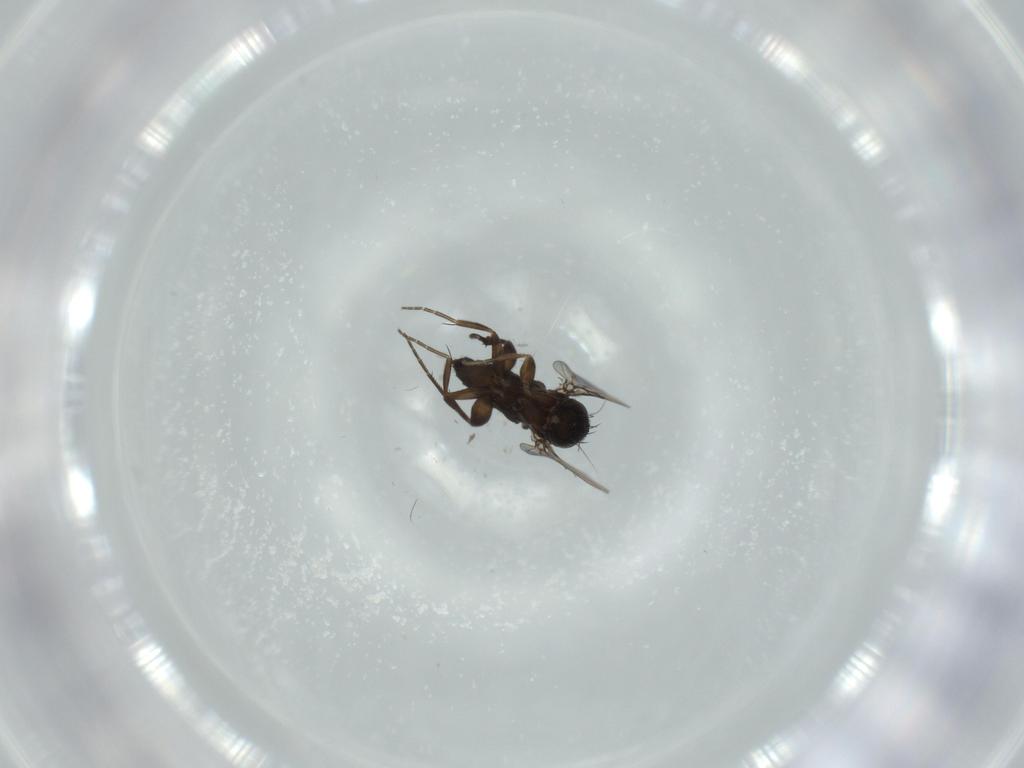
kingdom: Animalia
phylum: Arthropoda
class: Insecta
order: Diptera
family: Phoridae
